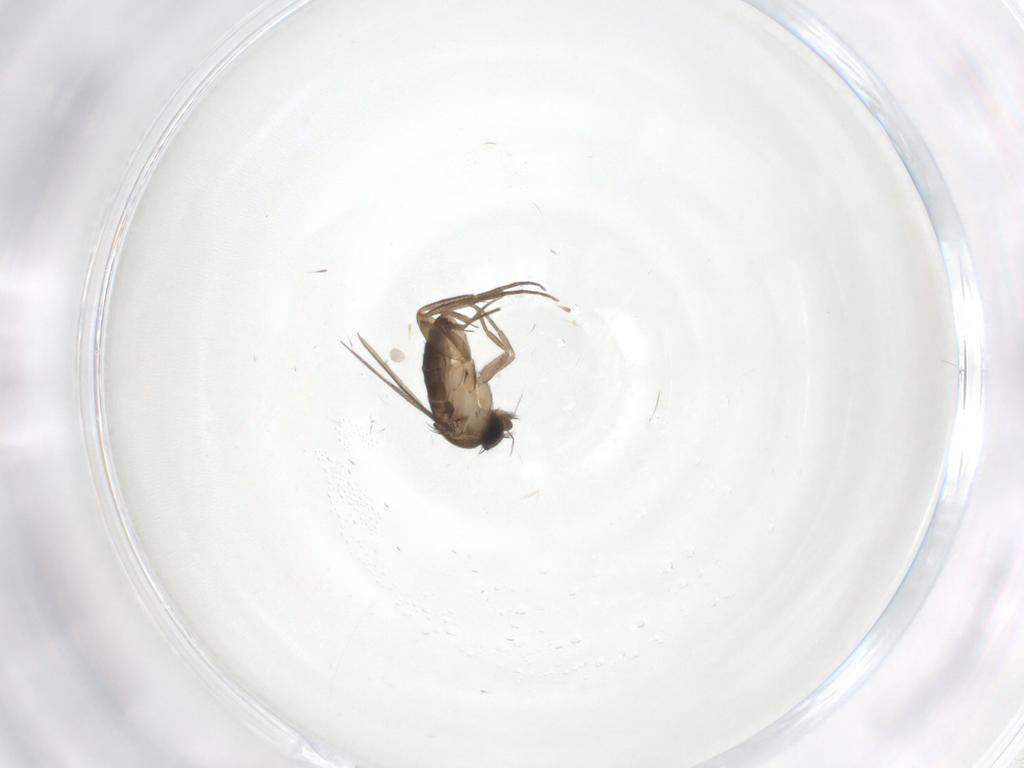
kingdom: Animalia
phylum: Arthropoda
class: Insecta
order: Diptera
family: Phoridae
